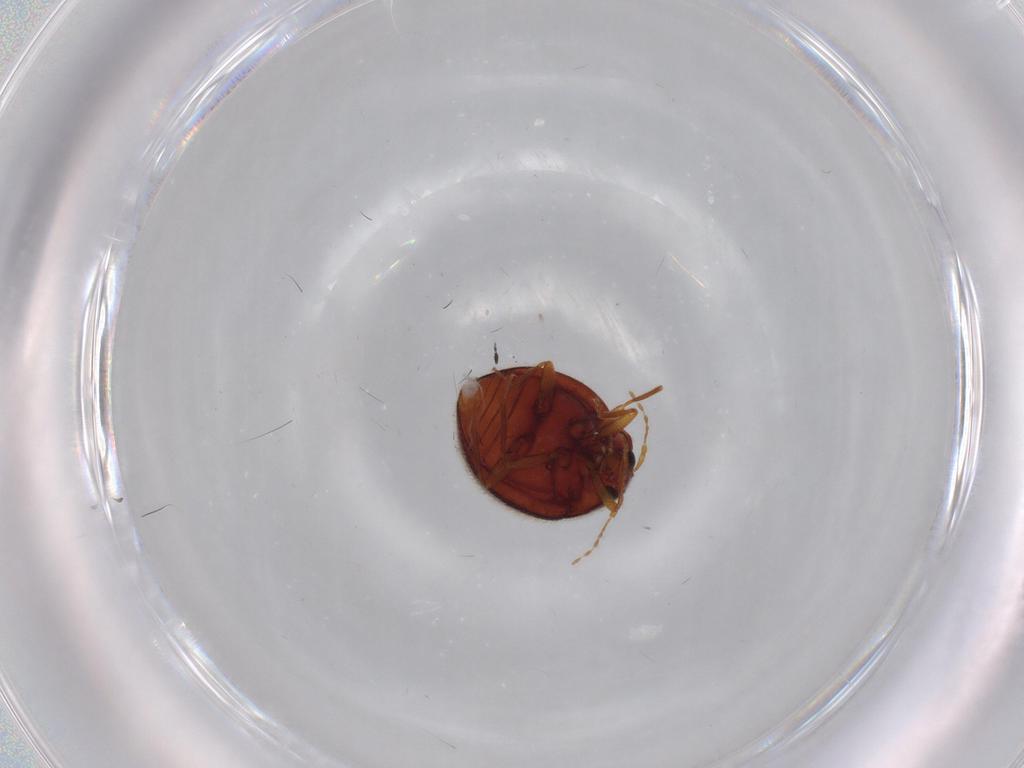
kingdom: Animalia
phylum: Arthropoda
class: Insecta
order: Coleoptera
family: Anamorphidae
